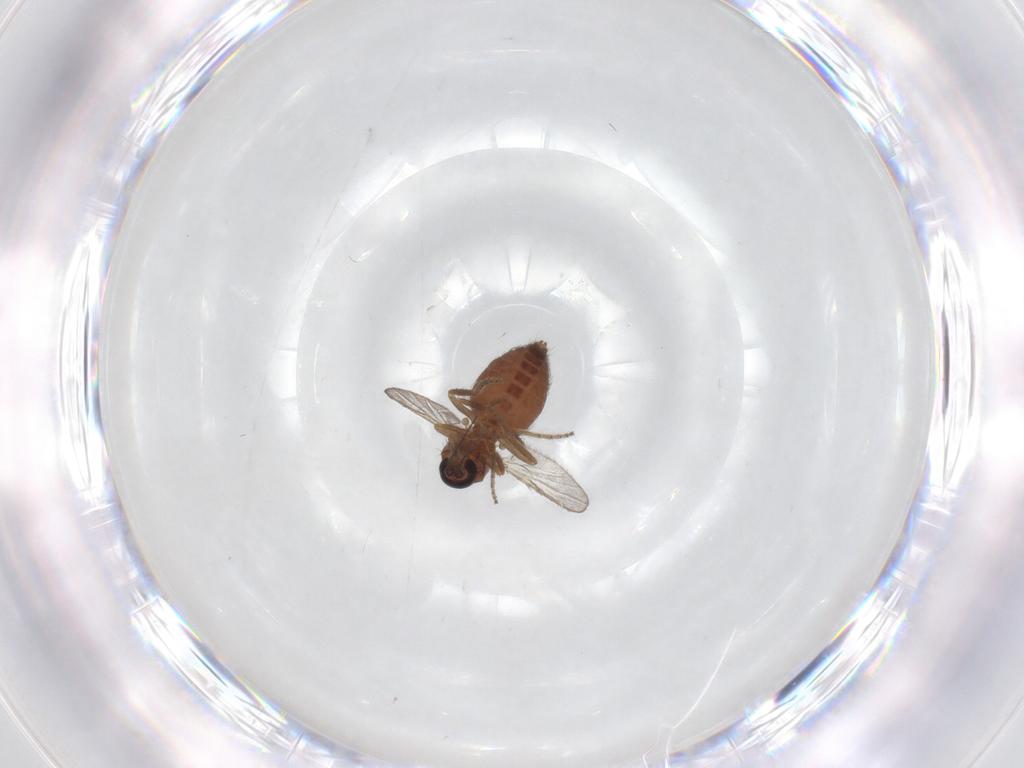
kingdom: Animalia
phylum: Arthropoda
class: Insecta
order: Diptera
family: Ceratopogonidae
